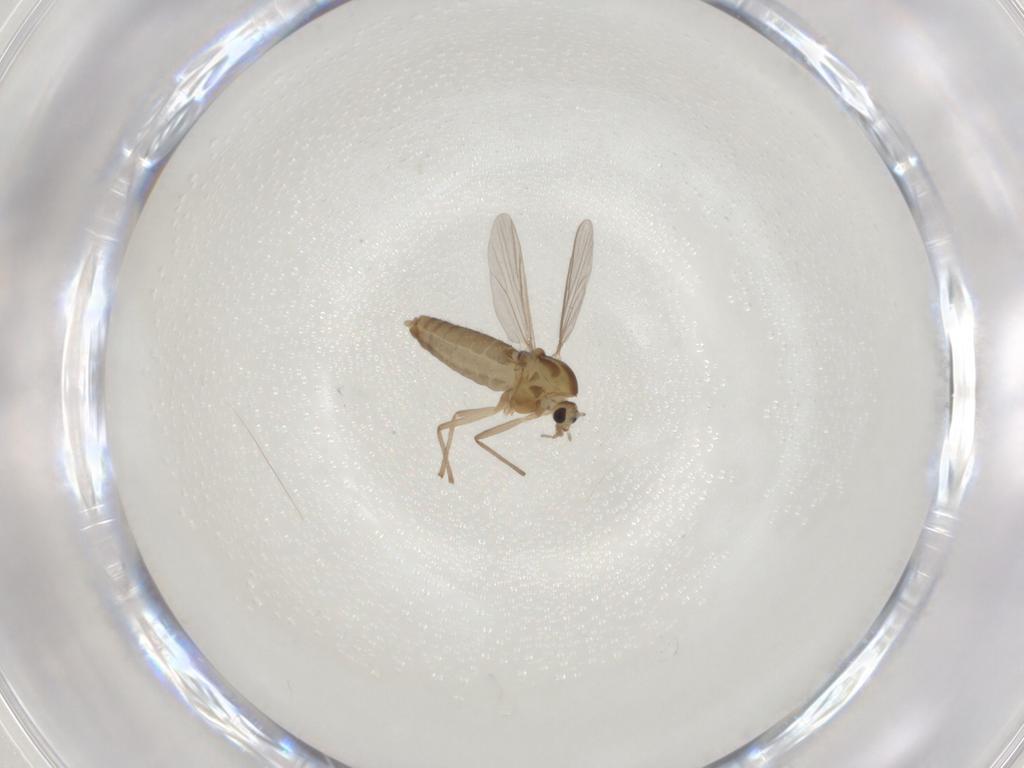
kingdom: Animalia
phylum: Arthropoda
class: Insecta
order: Diptera
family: Chironomidae
